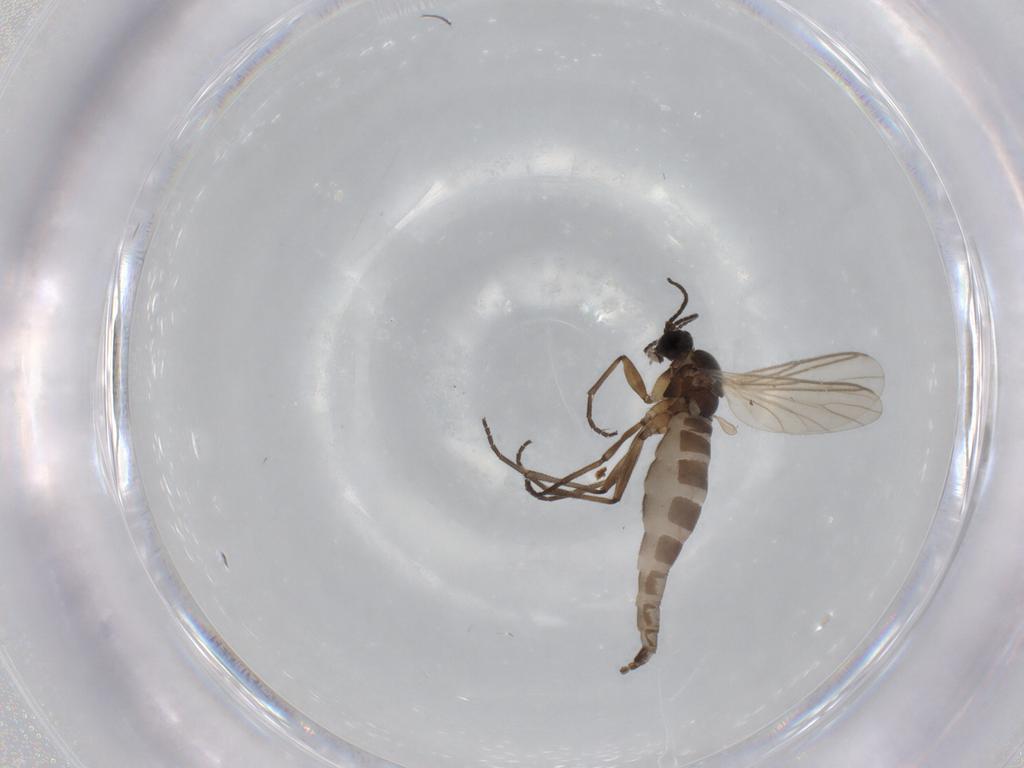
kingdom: Animalia
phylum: Arthropoda
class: Insecta
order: Diptera
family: Sciaridae
